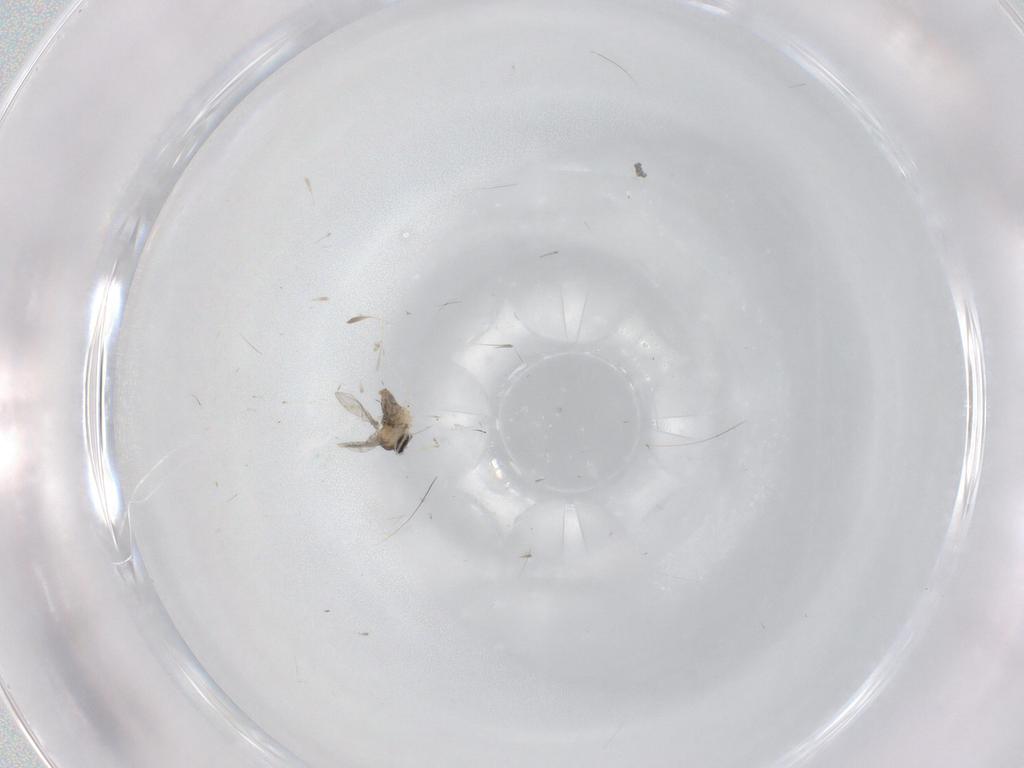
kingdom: Animalia
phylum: Arthropoda
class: Insecta
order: Diptera
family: Cecidomyiidae
